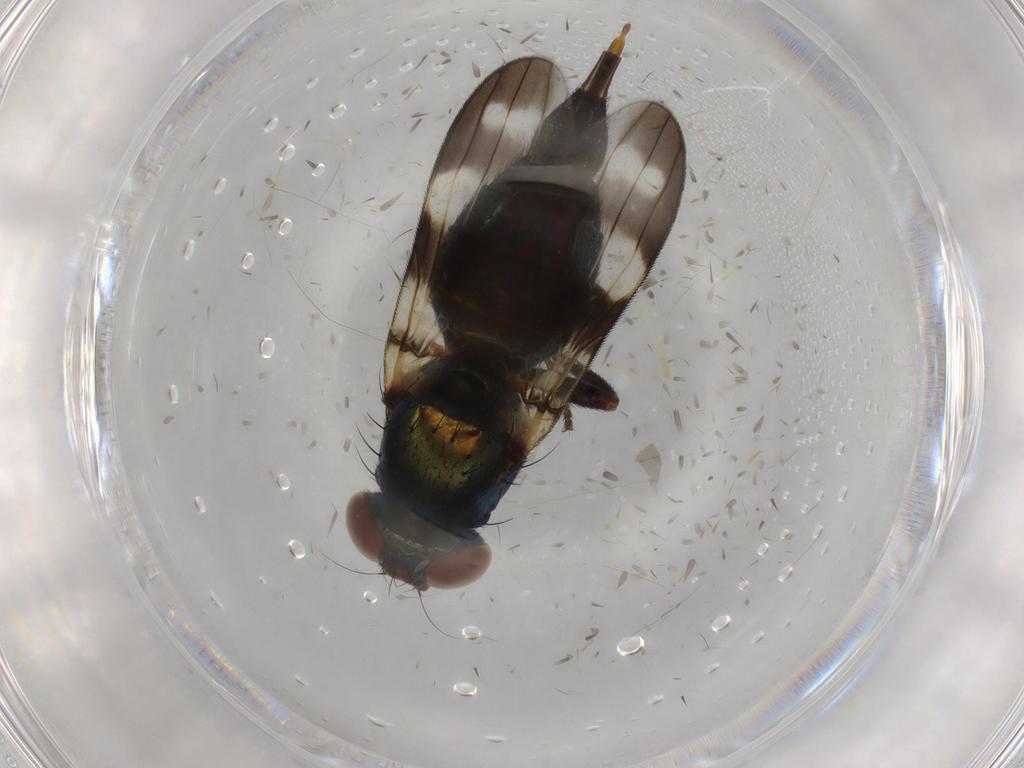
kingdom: Animalia
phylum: Arthropoda
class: Insecta
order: Diptera
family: Ulidiidae
